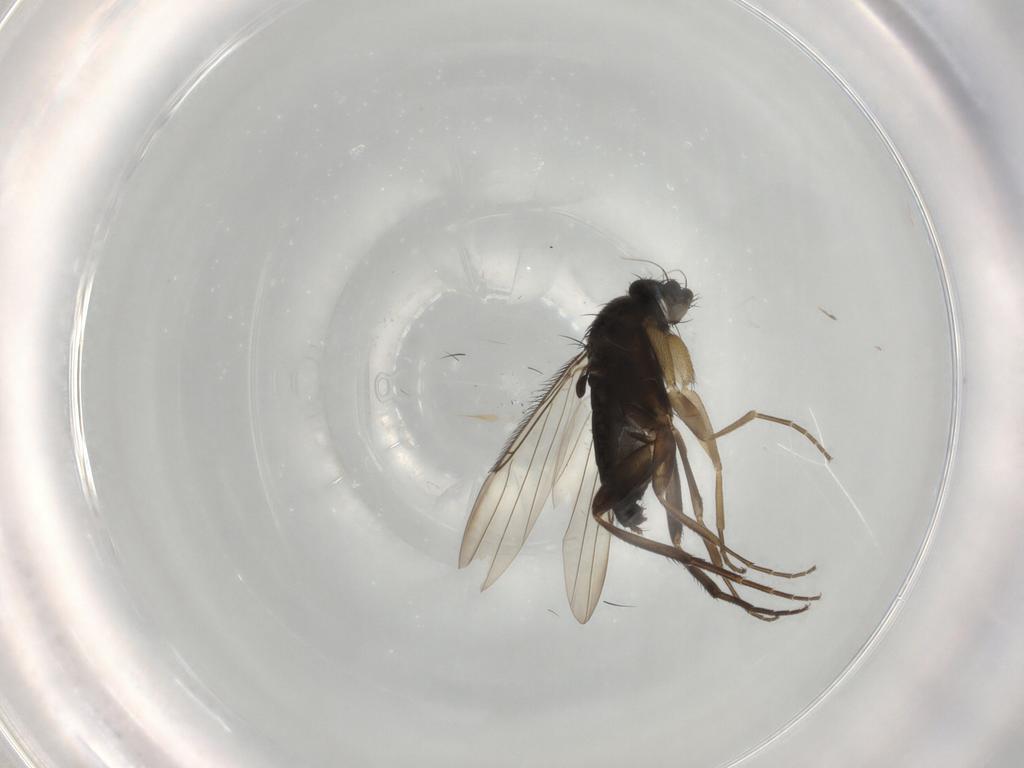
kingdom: Animalia
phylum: Arthropoda
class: Insecta
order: Diptera
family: Phoridae
